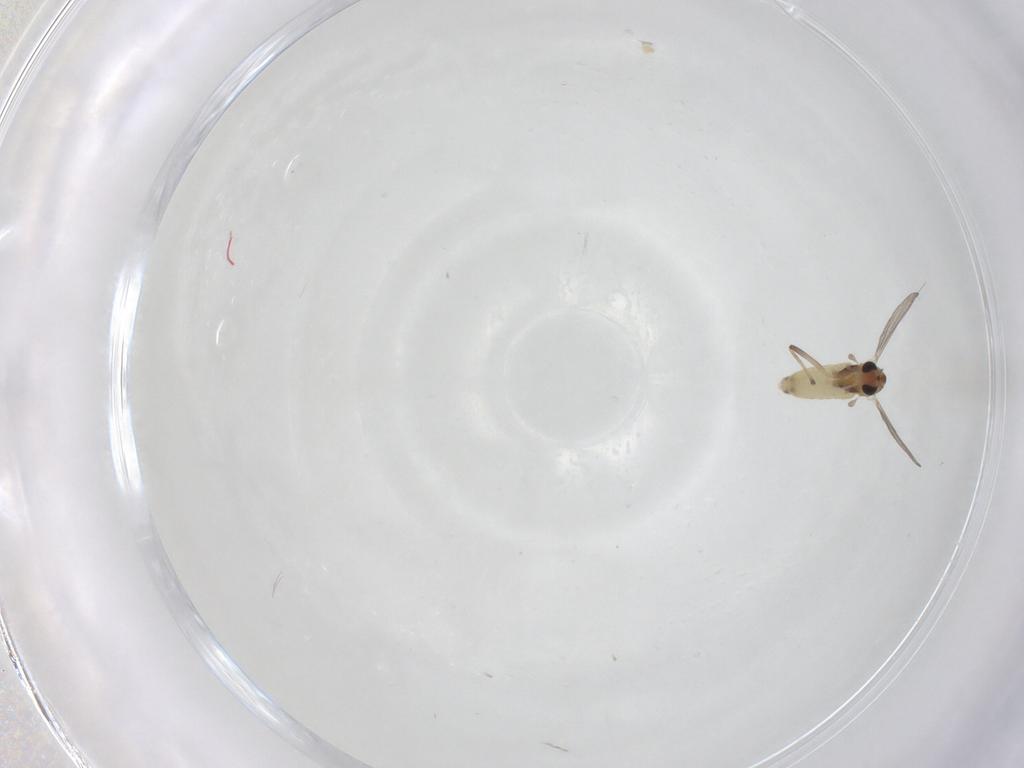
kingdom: Animalia
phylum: Arthropoda
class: Insecta
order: Diptera
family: Chironomidae
